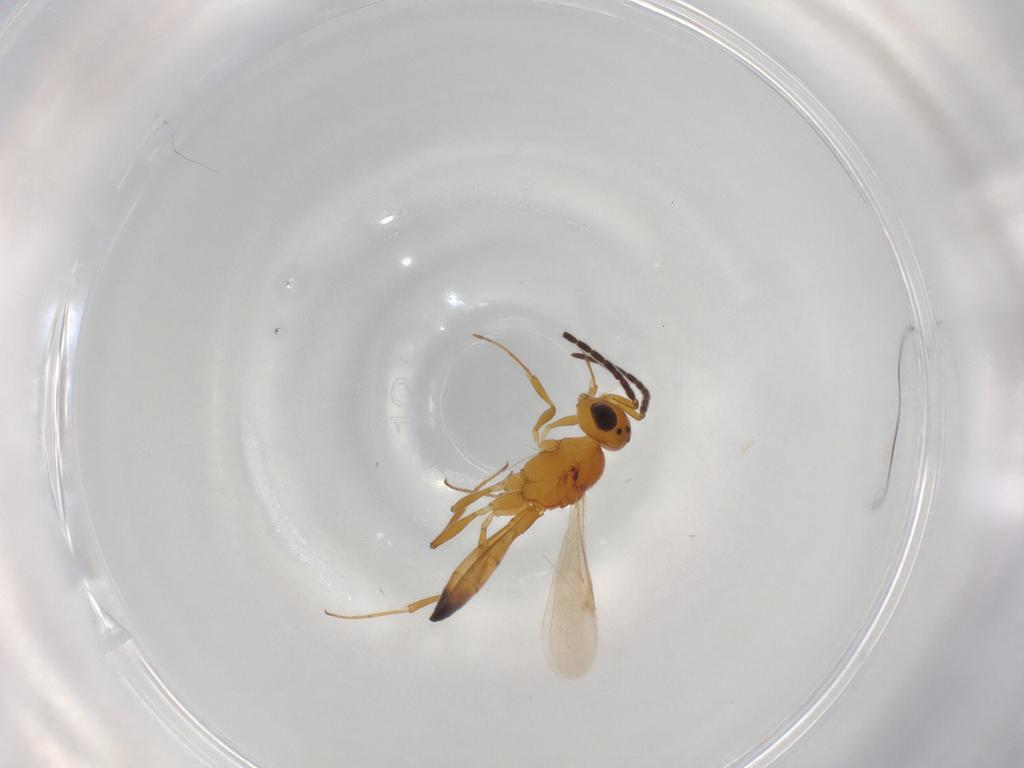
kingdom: Animalia
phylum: Arthropoda
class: Insecta
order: Hymenoptera
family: Scelionidae
